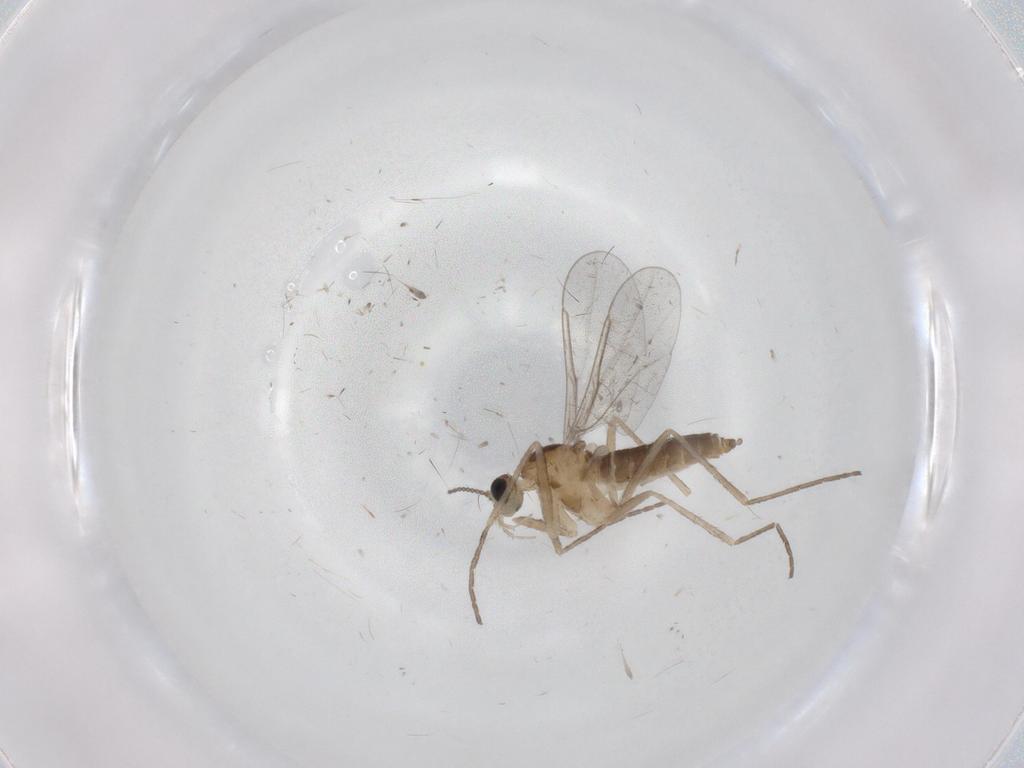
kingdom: Animalia
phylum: Arthropoda
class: Insecta
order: Diptera
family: Cecidomyiidae
